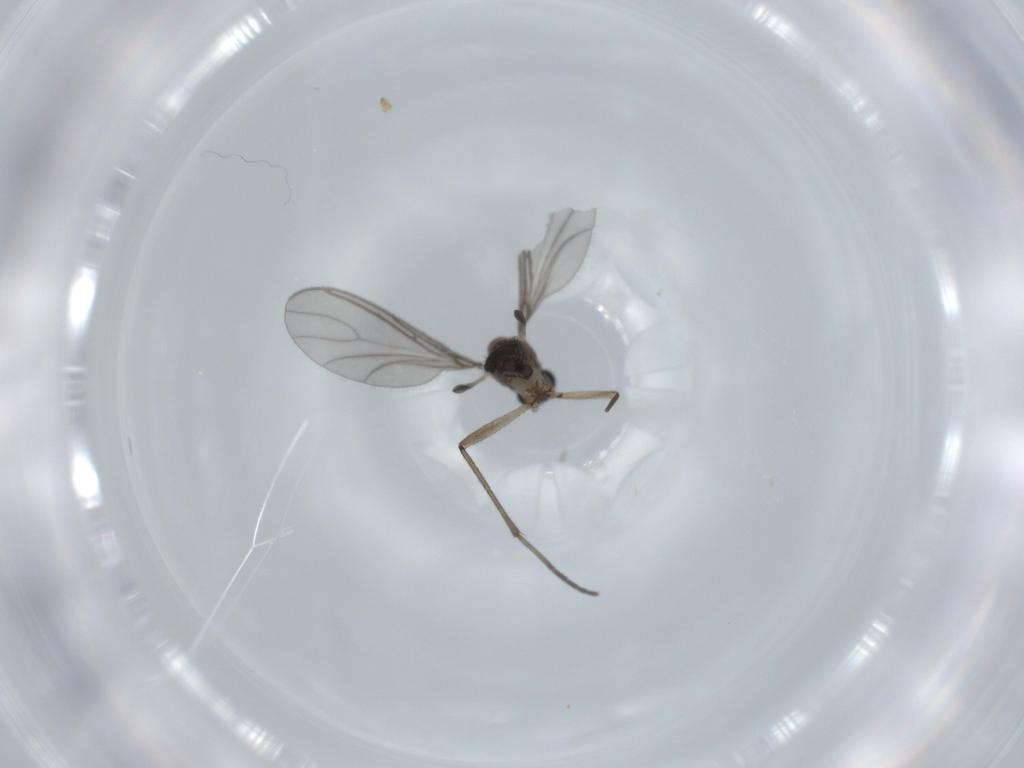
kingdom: Animalia
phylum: Arthropoda
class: Insecta
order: Diptera
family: Sciaridae
